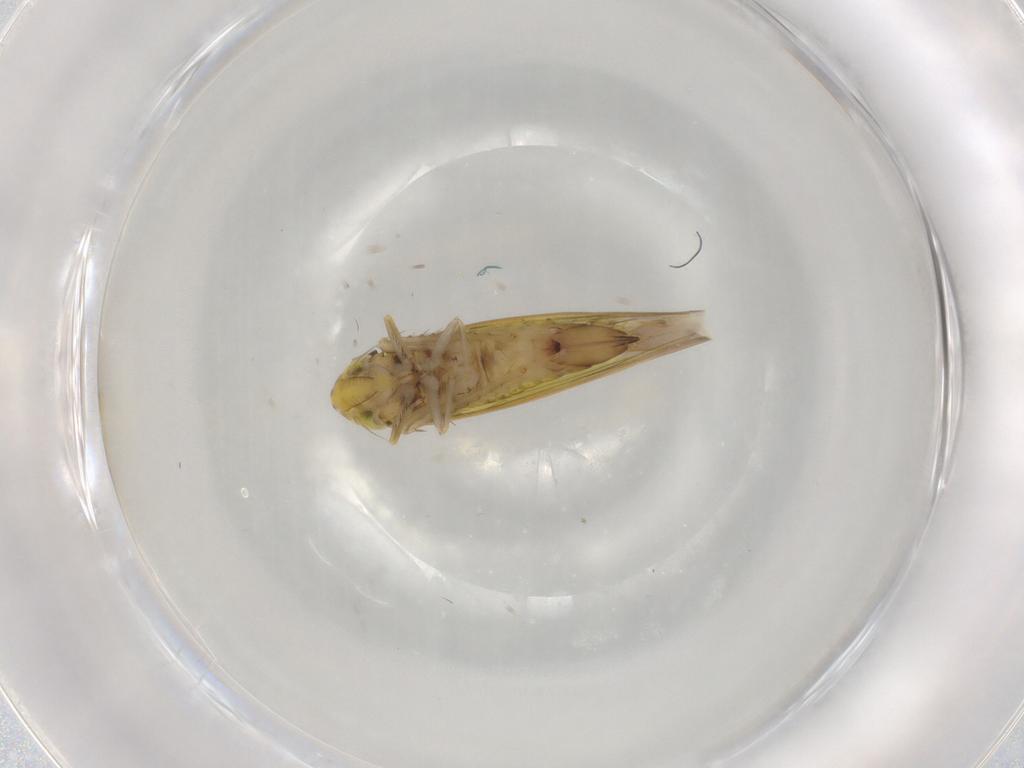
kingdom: Animalia
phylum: Arthropoda
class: Insecta
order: Hemiptera
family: Cicadellidae
